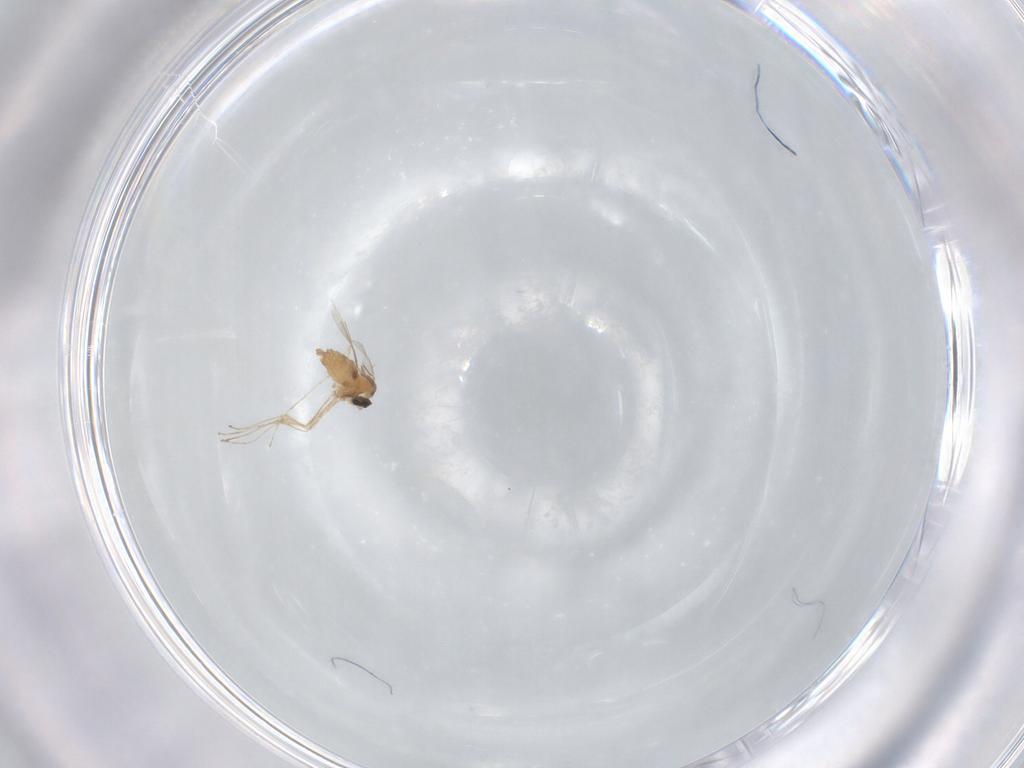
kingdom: Animalia
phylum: Arthropoda
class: Insecta
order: Diptera
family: Cecidomyiidae
